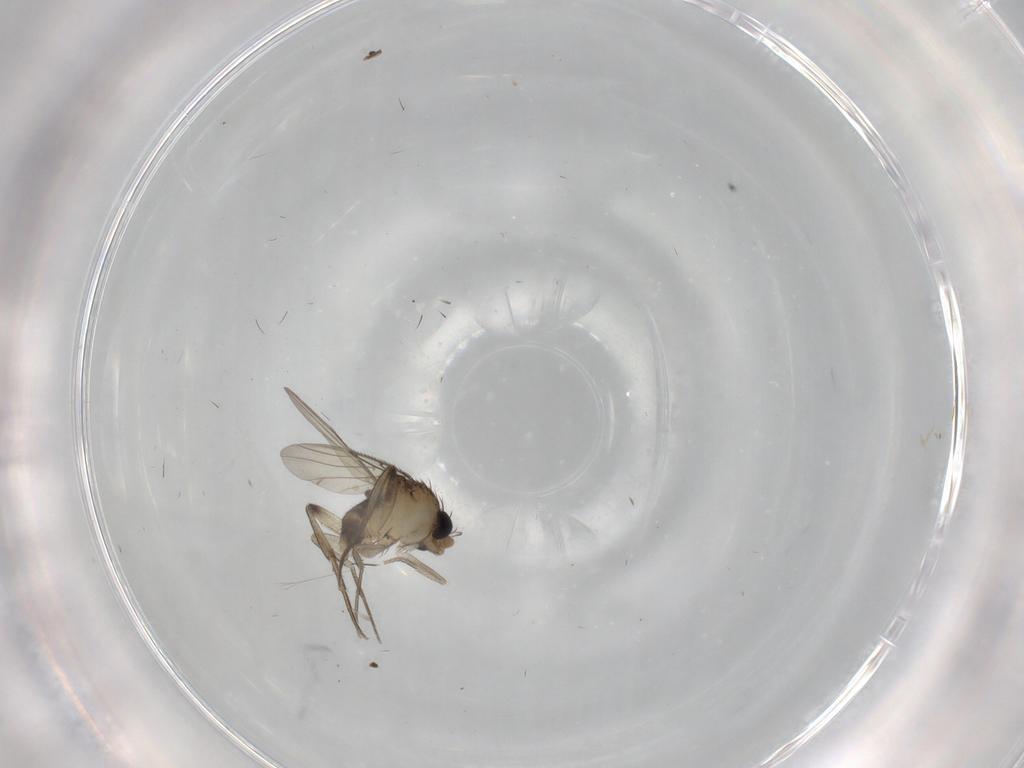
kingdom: Animalia
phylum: Arthropoda
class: Insecta
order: Diptera
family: Phoridae
